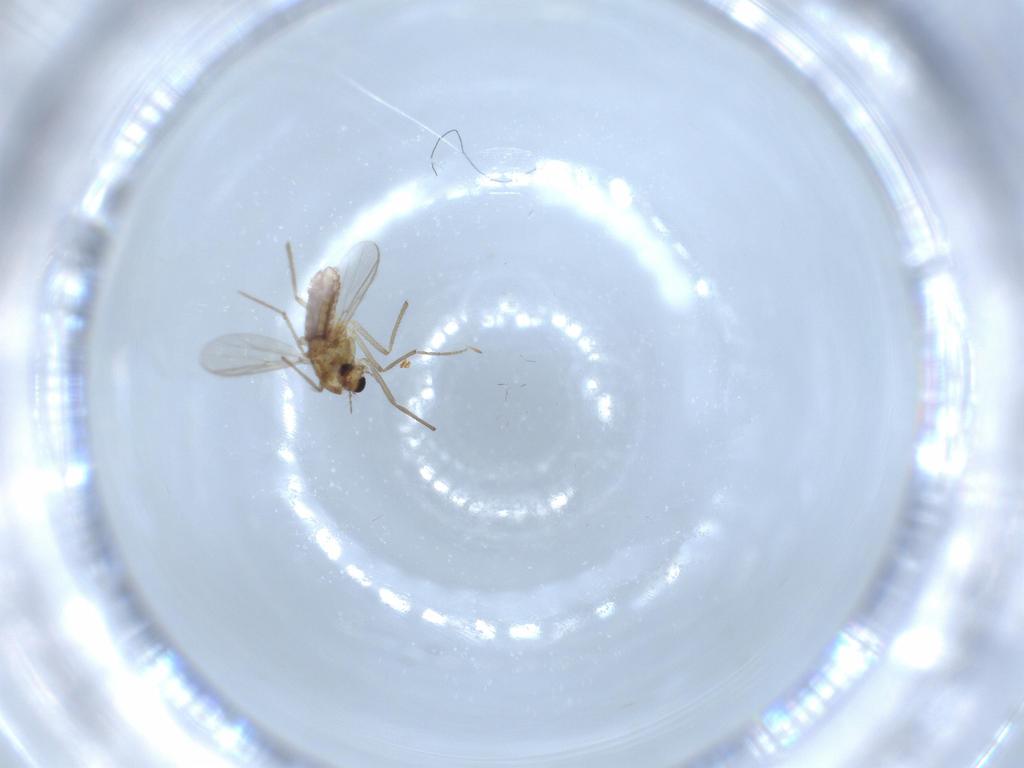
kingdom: Animalia
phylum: Arthropoda
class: Insecta
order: Diptera
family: Chironomidae
